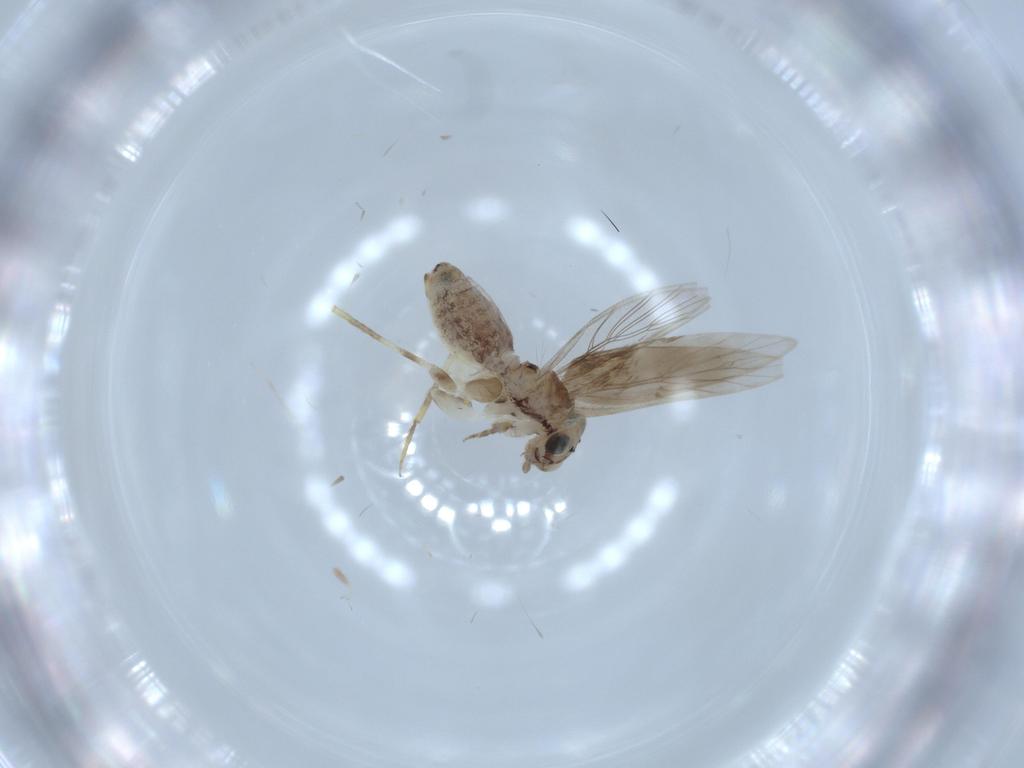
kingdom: Animalia
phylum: Arthropoda
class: Insecta
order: Psocodea
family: Lepidopsocidae
